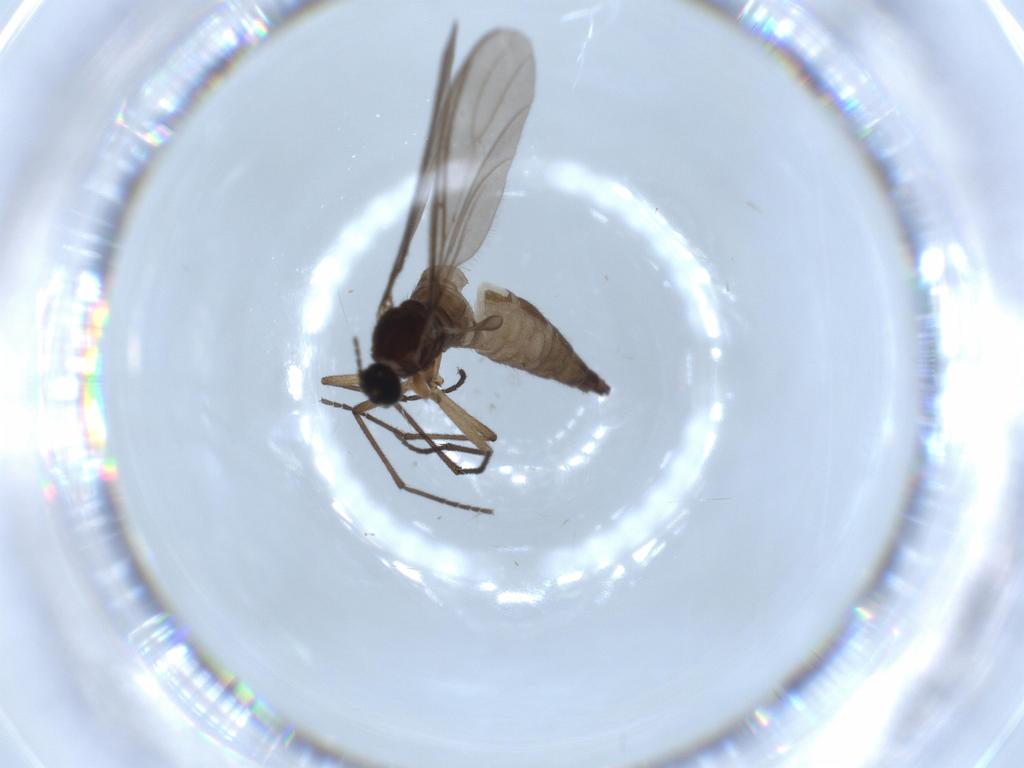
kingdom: Animalia
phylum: Arthropoda
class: Insecta
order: Diptera
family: Sciaridae
